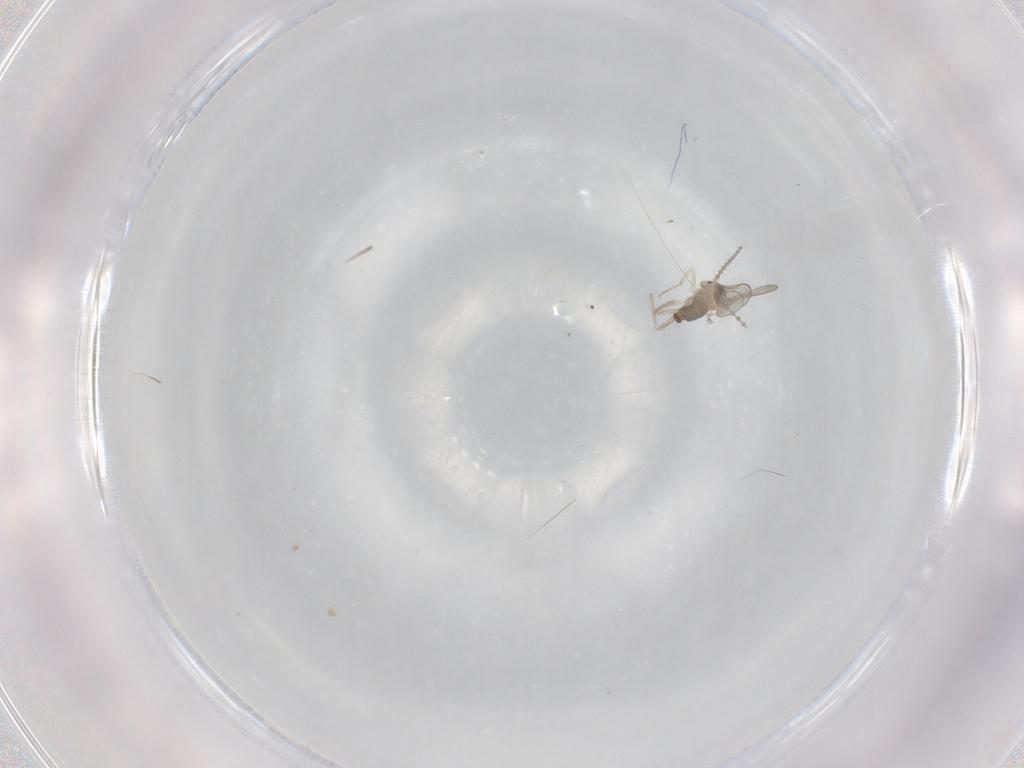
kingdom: Animalia
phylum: Arthropoda
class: Insecta
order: Diptera
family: Cecidomyiidae
